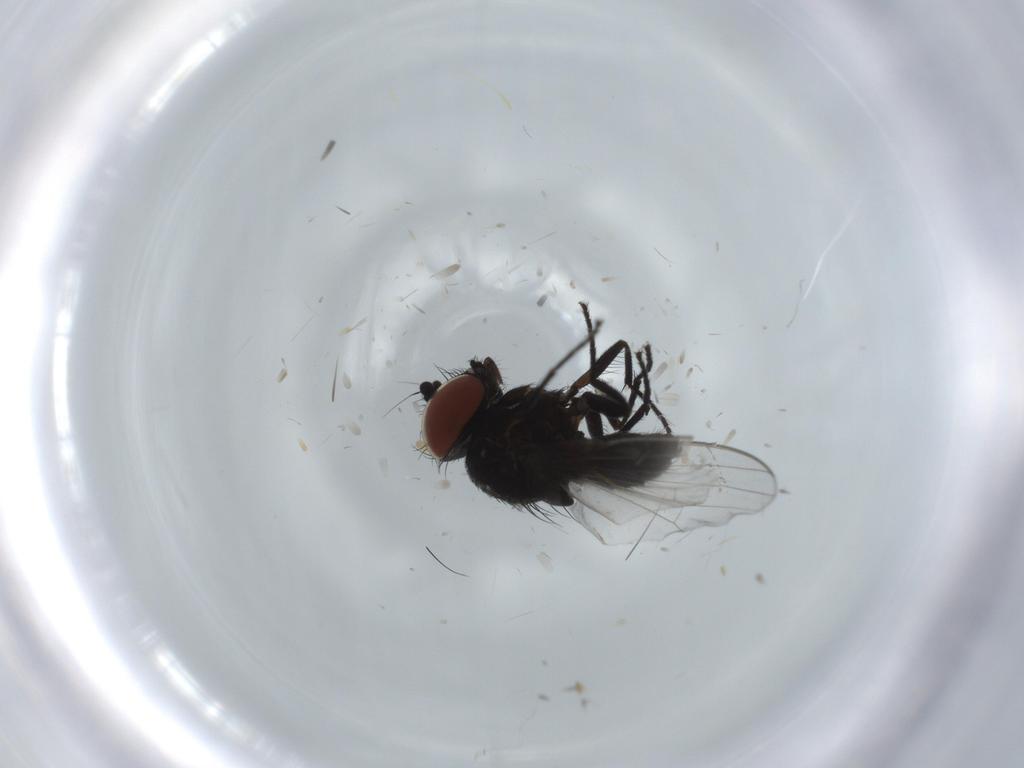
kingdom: Animalia
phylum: Arthropoda
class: Insecta
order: Diptera
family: Milichiidae
